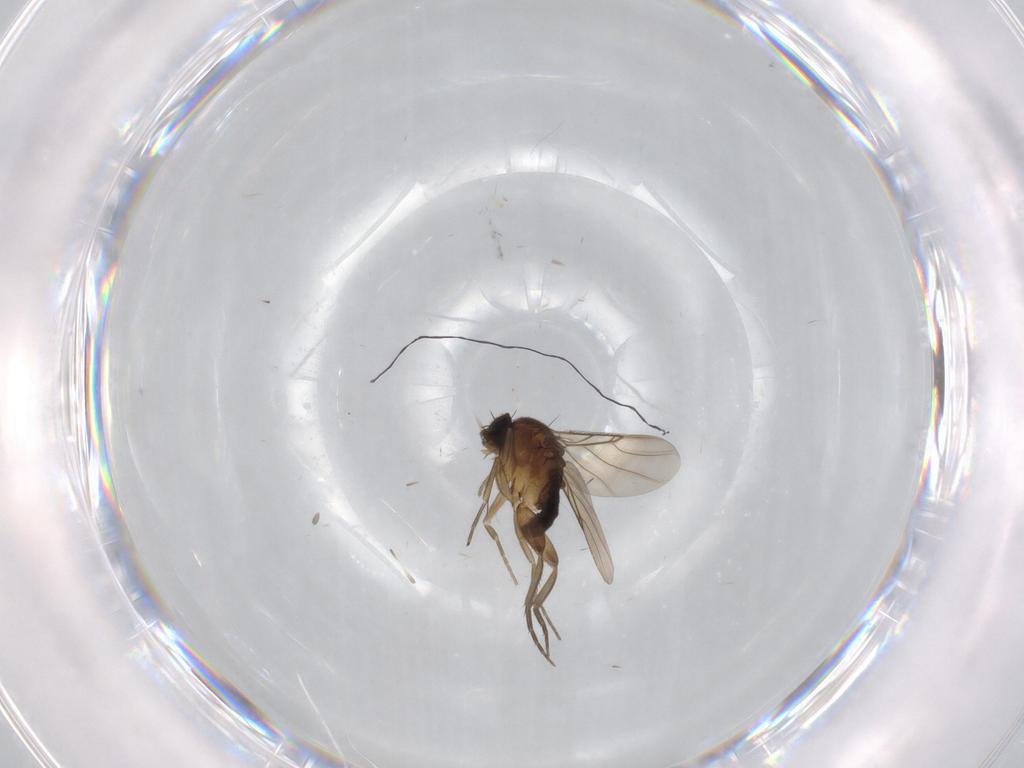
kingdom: Animalia
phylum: Arthropoda
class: Insecta
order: Diptera
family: Phoridae
